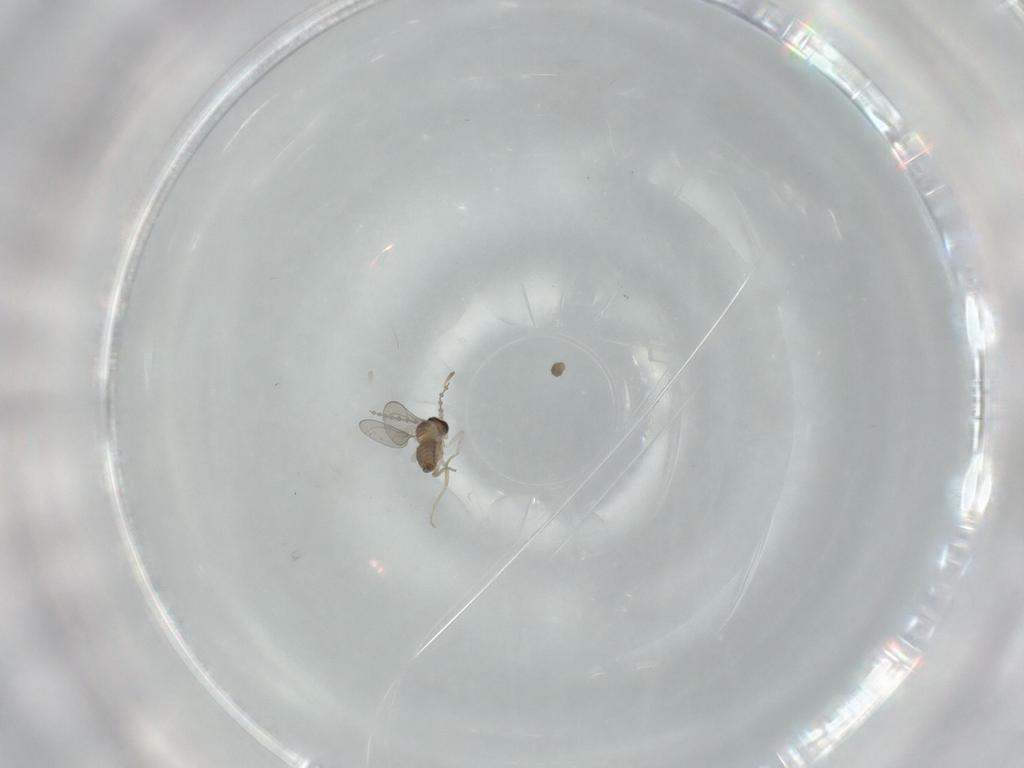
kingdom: Animalia
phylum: Arthropoda
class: Insecta
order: Diptera
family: Cecidomyiidae
